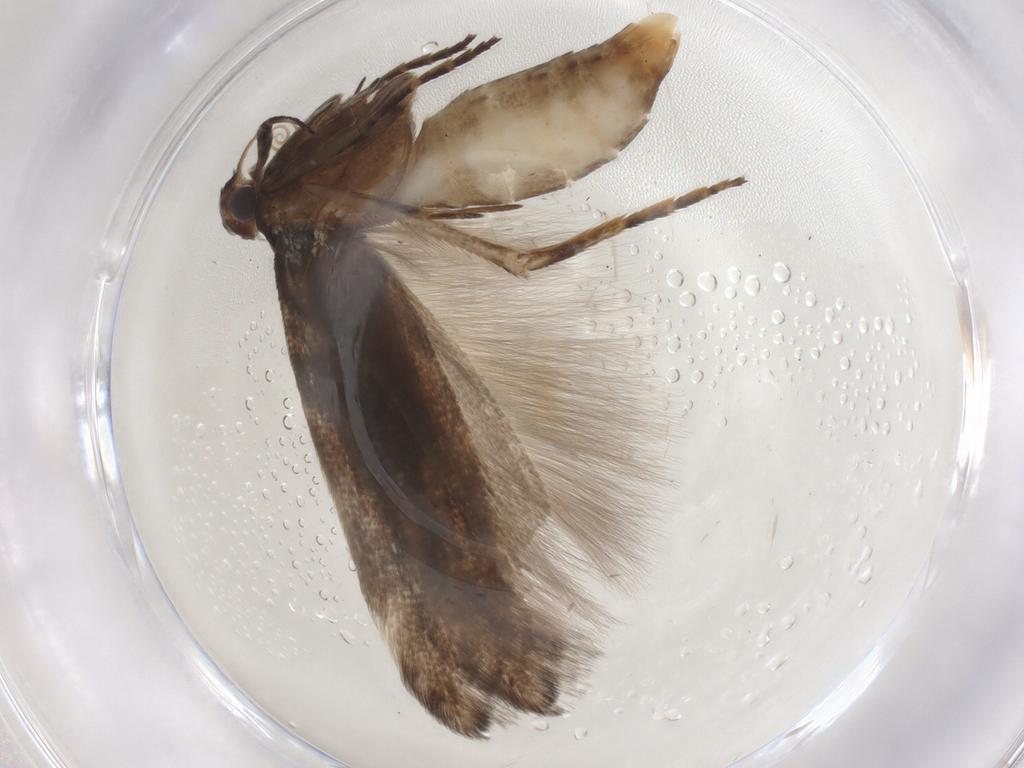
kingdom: Animalia
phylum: Arthropoda
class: Insecta
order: Lepidoptera
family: Gelechiidae
